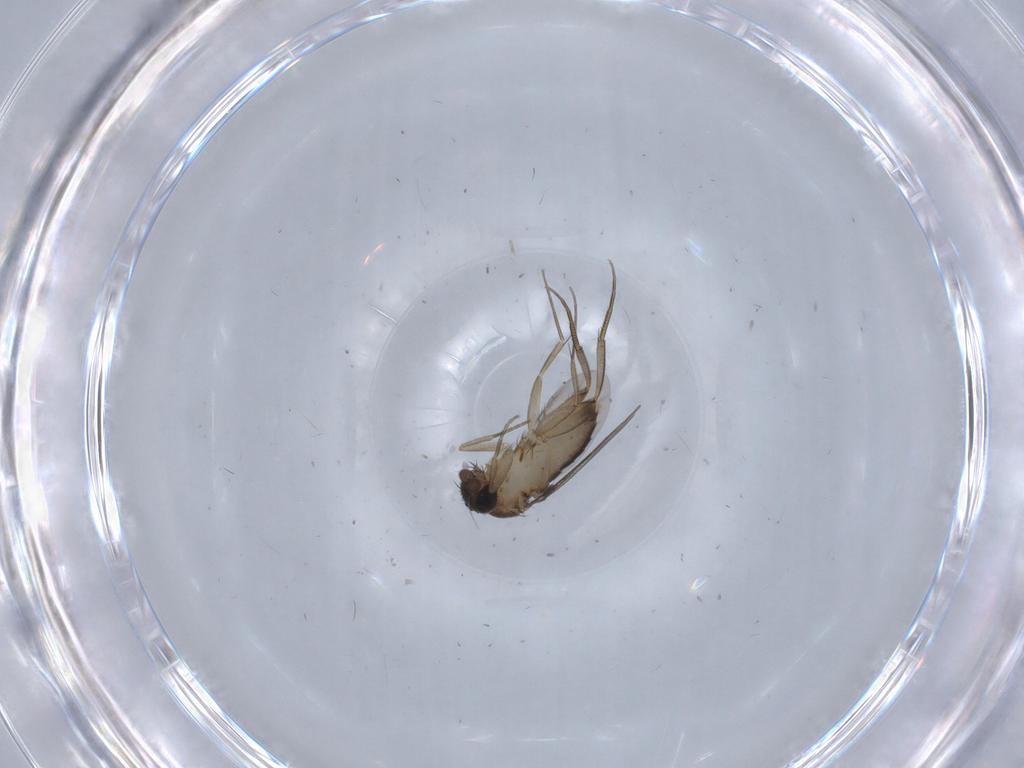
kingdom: Animalia
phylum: Arthropoda
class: Insecta
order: Diptera
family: Phoridae
